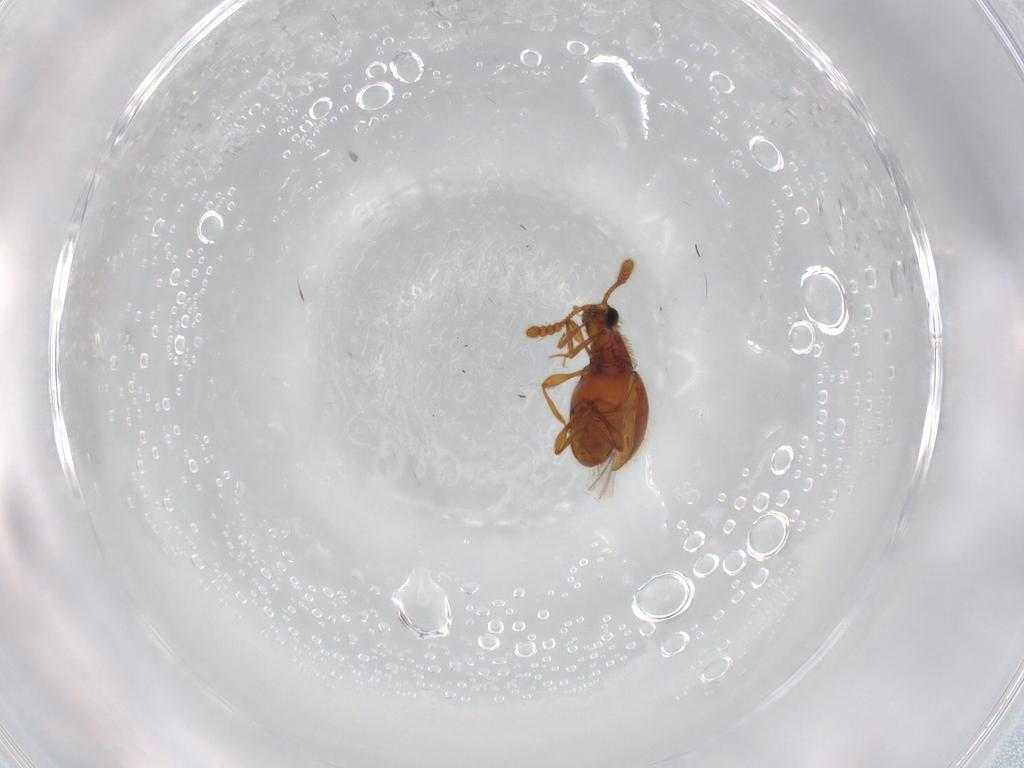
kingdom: Animalia
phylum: Arthropoda
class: Insecta
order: Coleoptera
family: Staphylinidae
